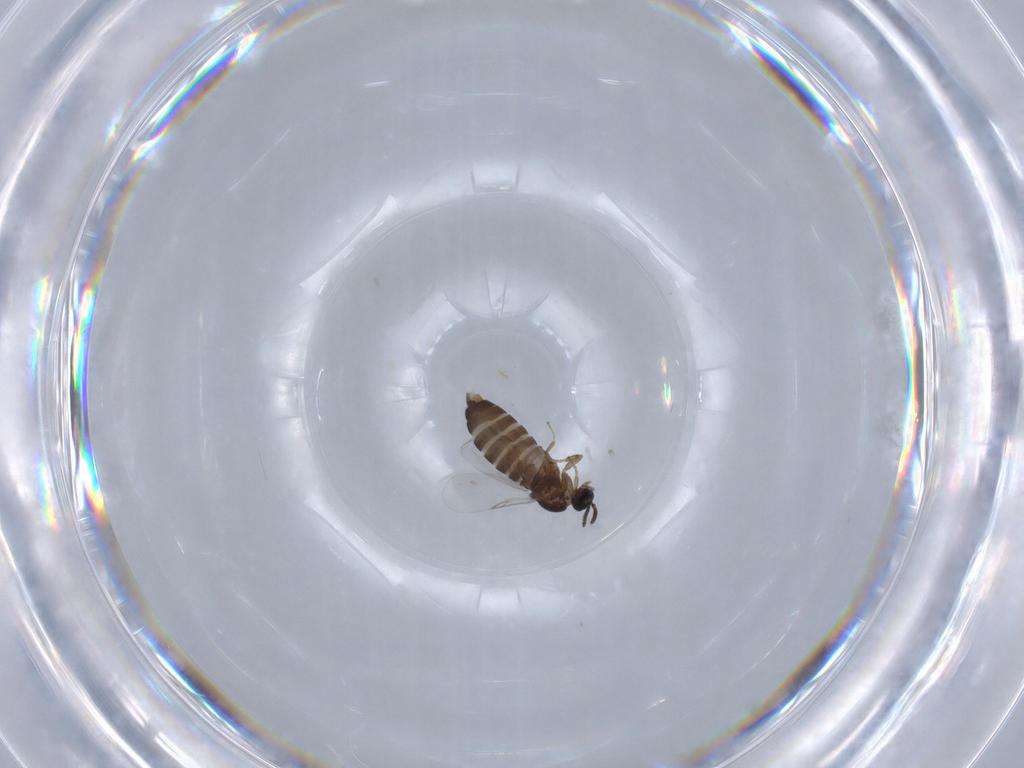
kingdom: Animalia
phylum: Arthropoda
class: Insecta
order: Diptera
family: Scatopsidae
